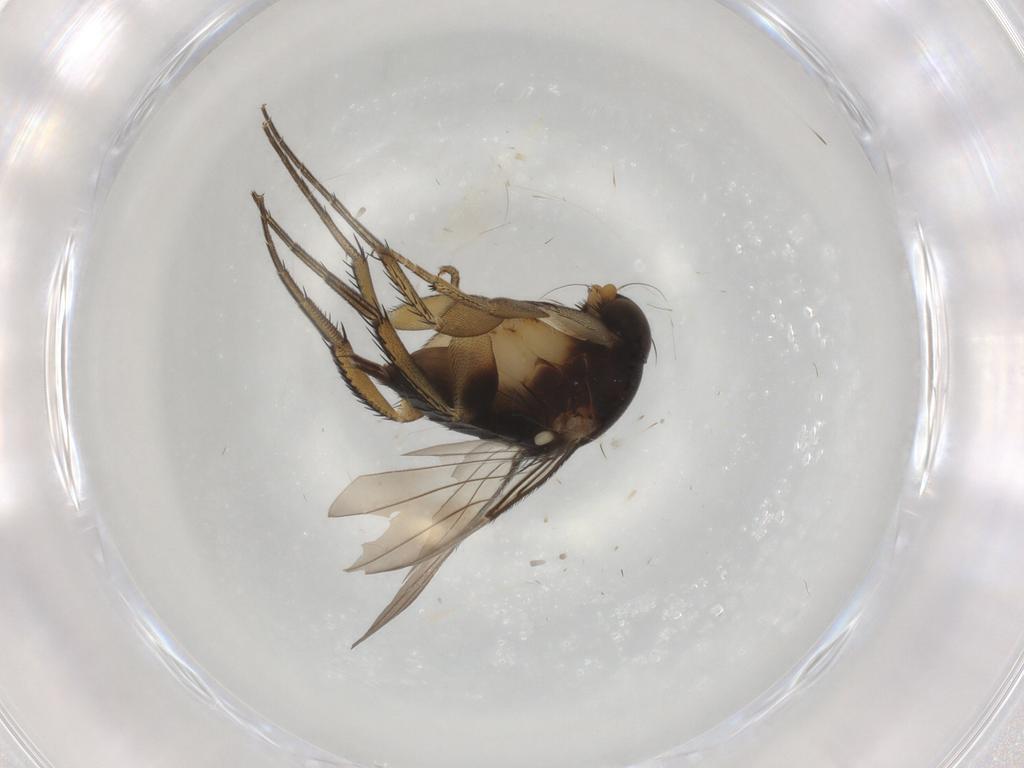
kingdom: Animalia
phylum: Arthropoda
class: Insecta
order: Diptera
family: Phoridae
